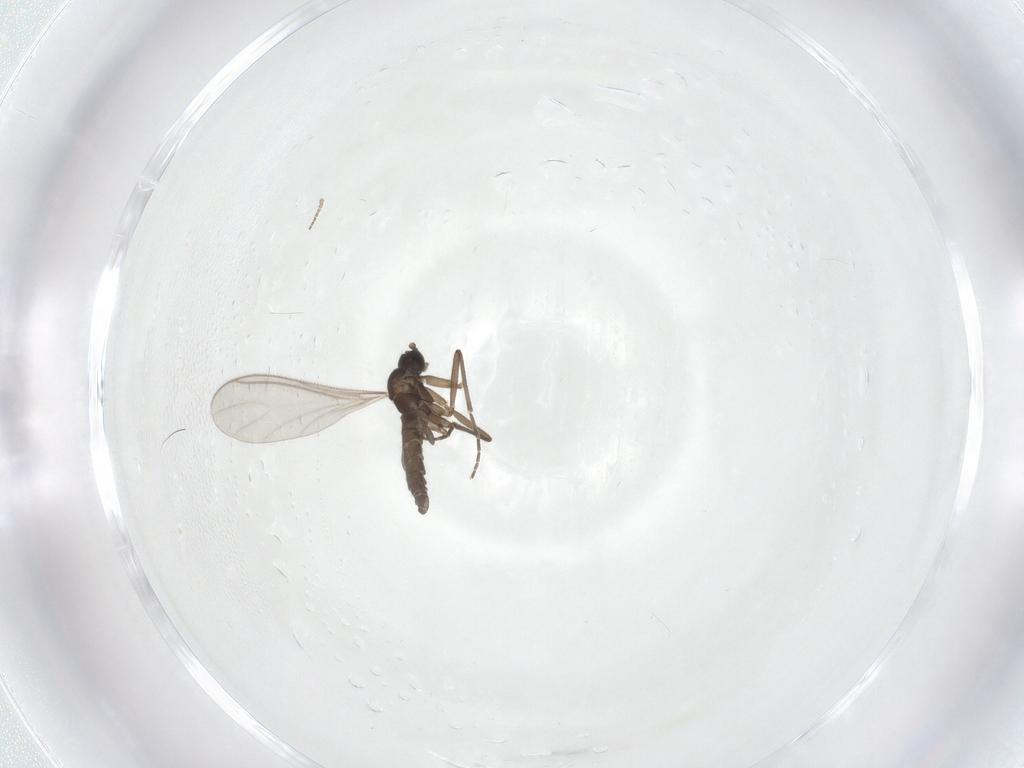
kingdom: Animalia
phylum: Arthropoda
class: Insecta
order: Diptera
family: Sciaridae
